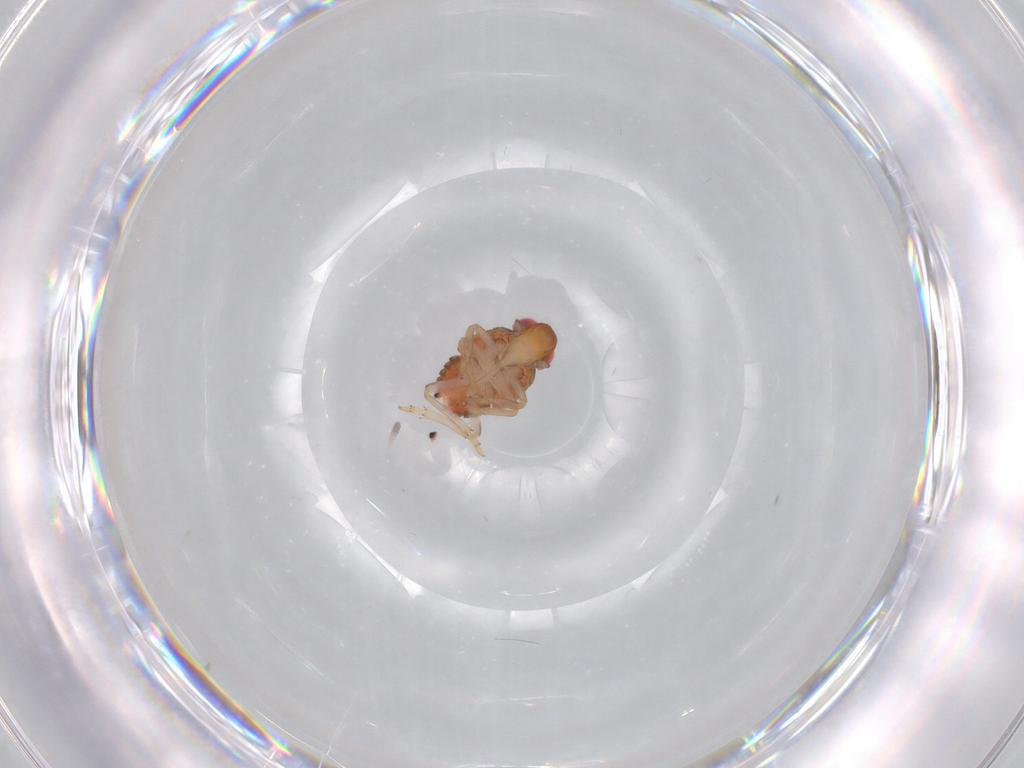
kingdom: Animalia
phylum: Arthropoda
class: Insecta
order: Hemiptera
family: Issidae
